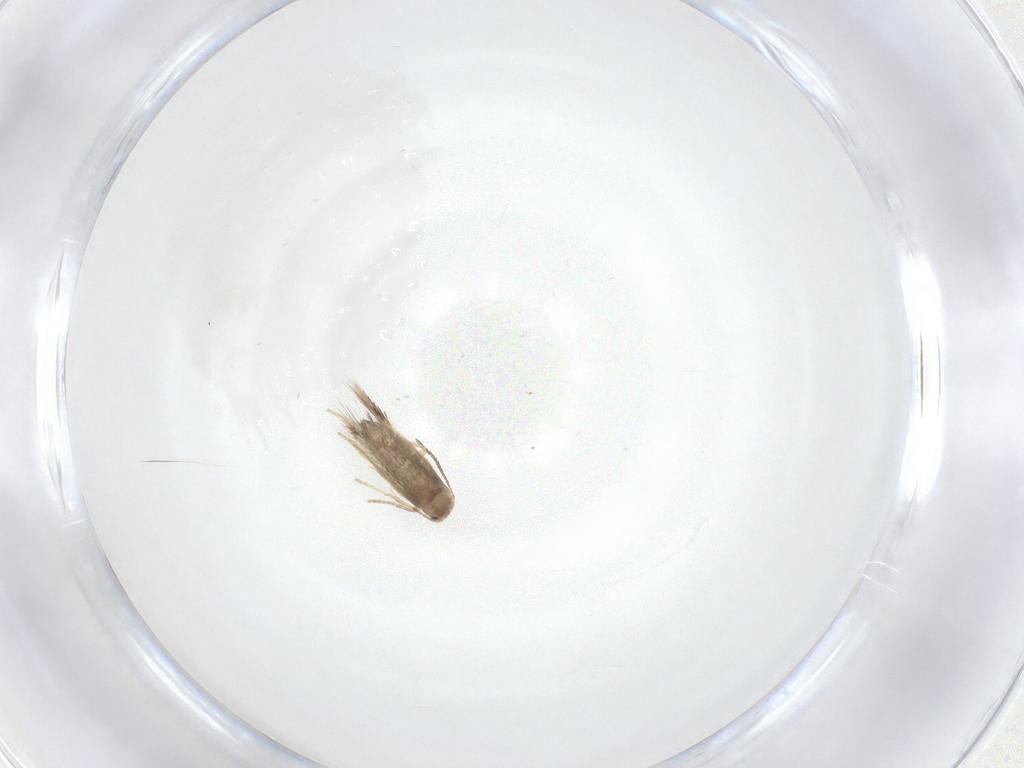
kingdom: Animalia
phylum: Arthropoda
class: Insecta
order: Lepidoptera
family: Nepticulidae
